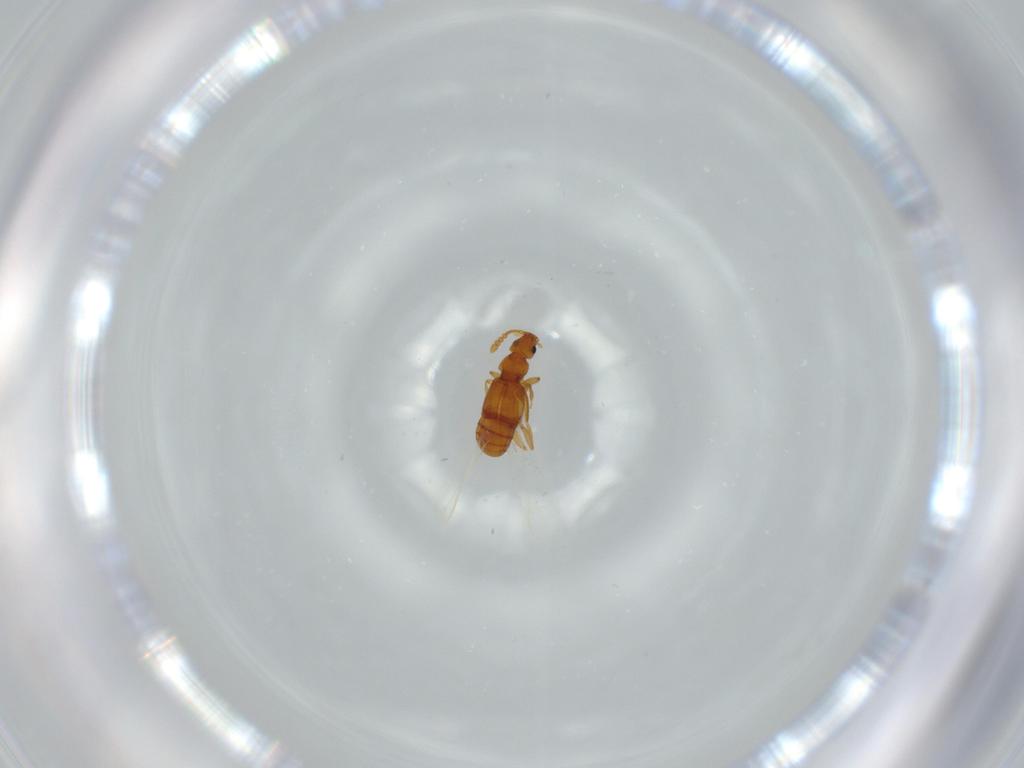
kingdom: Animalia
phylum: Arthropoda
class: Insecta
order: Coleoptera
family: Staphylinidae
